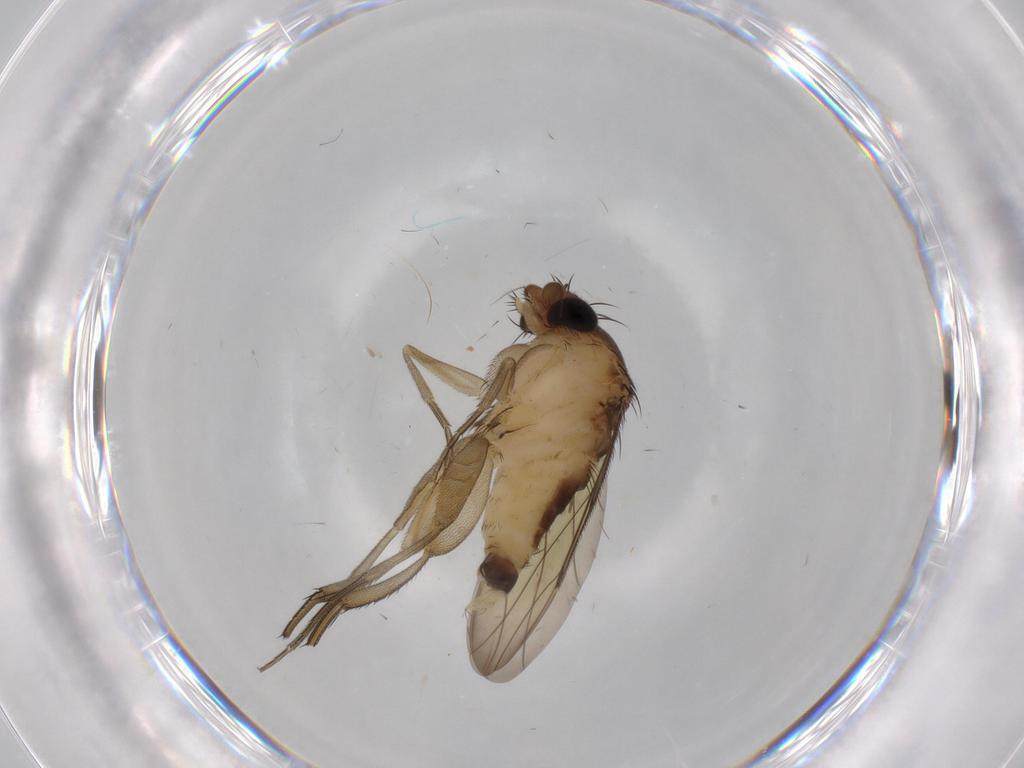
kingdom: Animalia
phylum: Arthropoda
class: Insecta
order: Diptera
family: Phoridae
